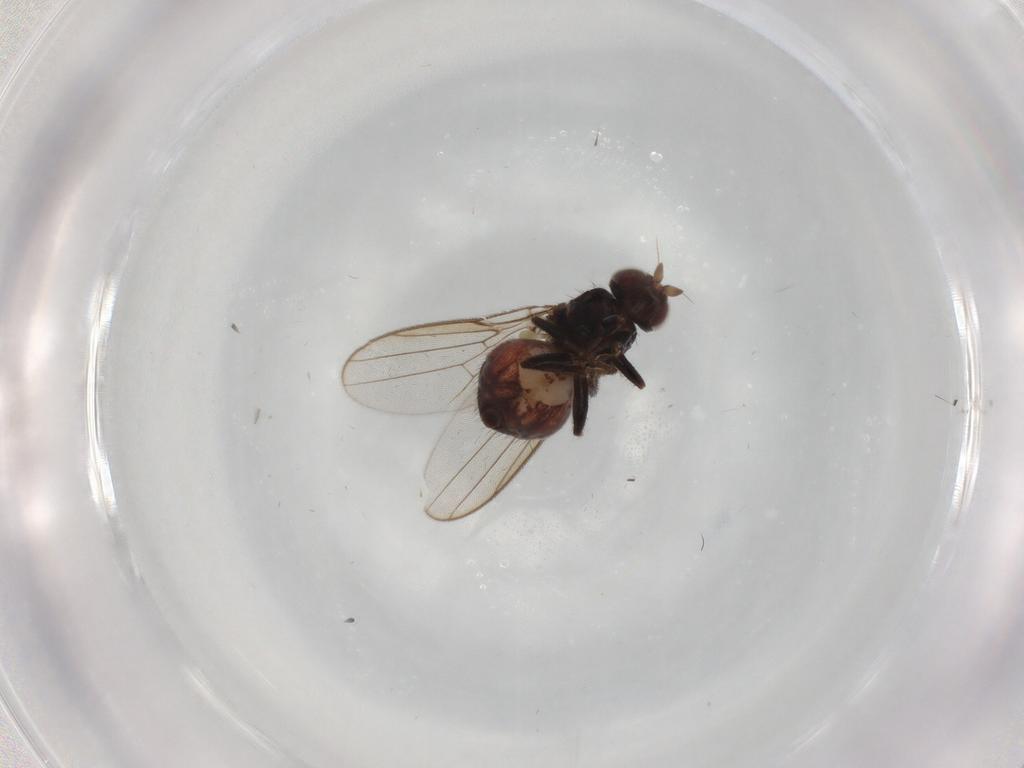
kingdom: Animalia
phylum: Arthropoda
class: Insecta
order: Diptera
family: Chloropidae
